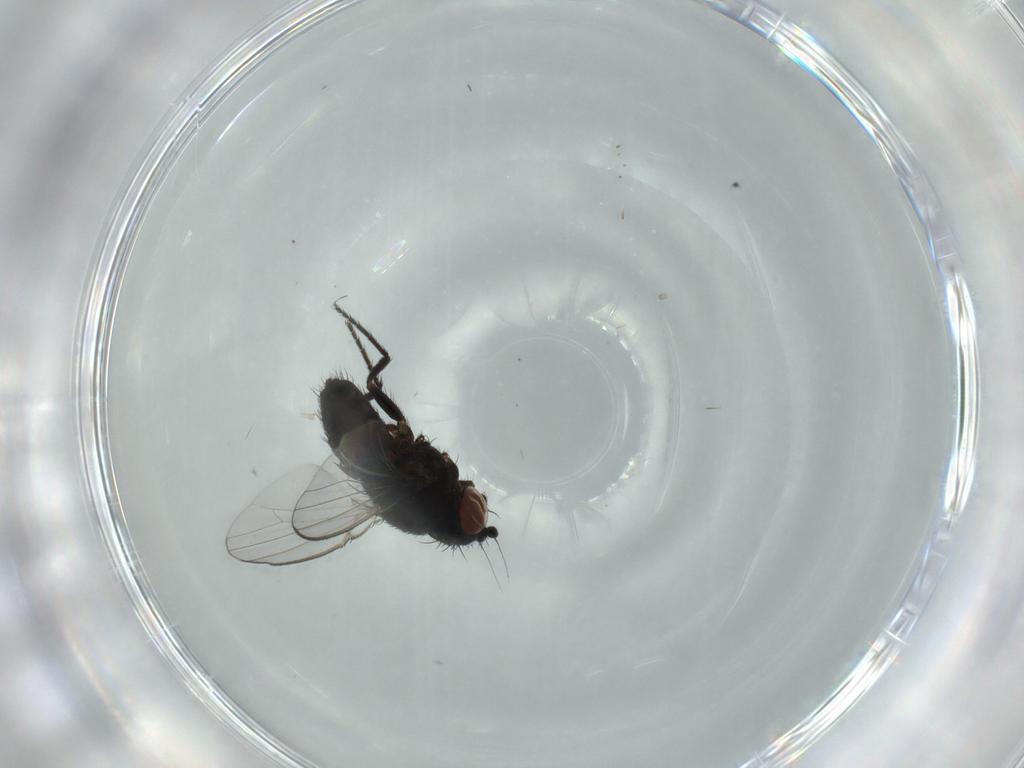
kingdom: Animalia
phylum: Arthropoda
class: Insecta
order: Diptera
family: Milichiidae
